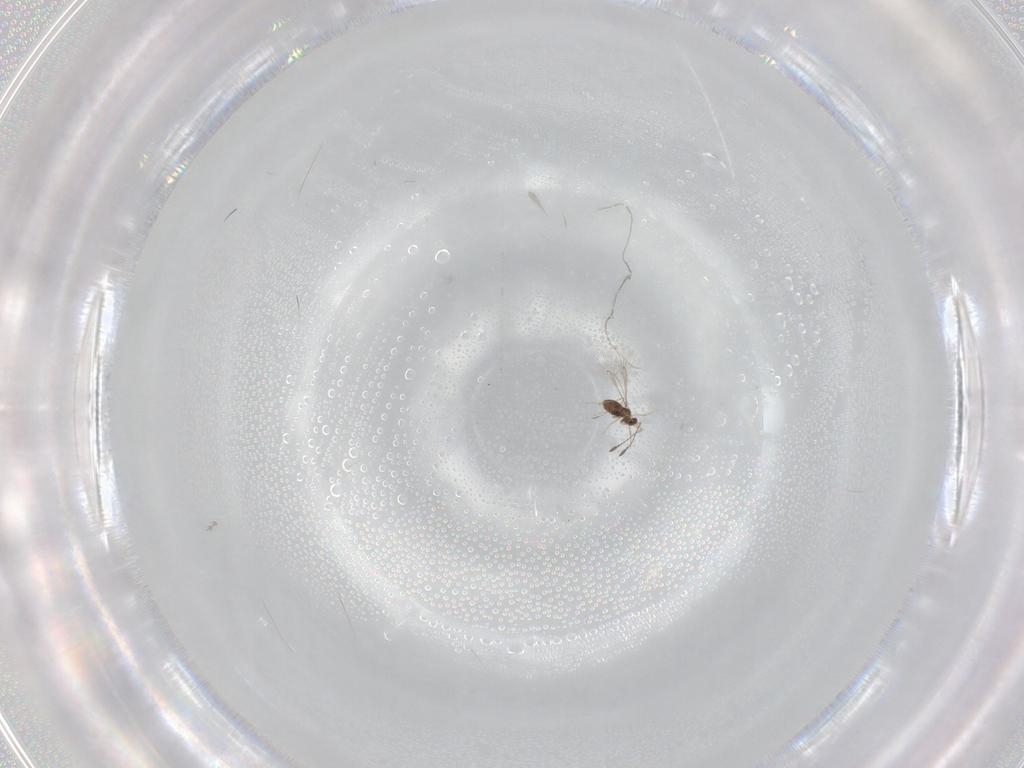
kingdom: Animalia
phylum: Arthropoda
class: Insecta
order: Hymenoptera
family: Trichogrammatidae
